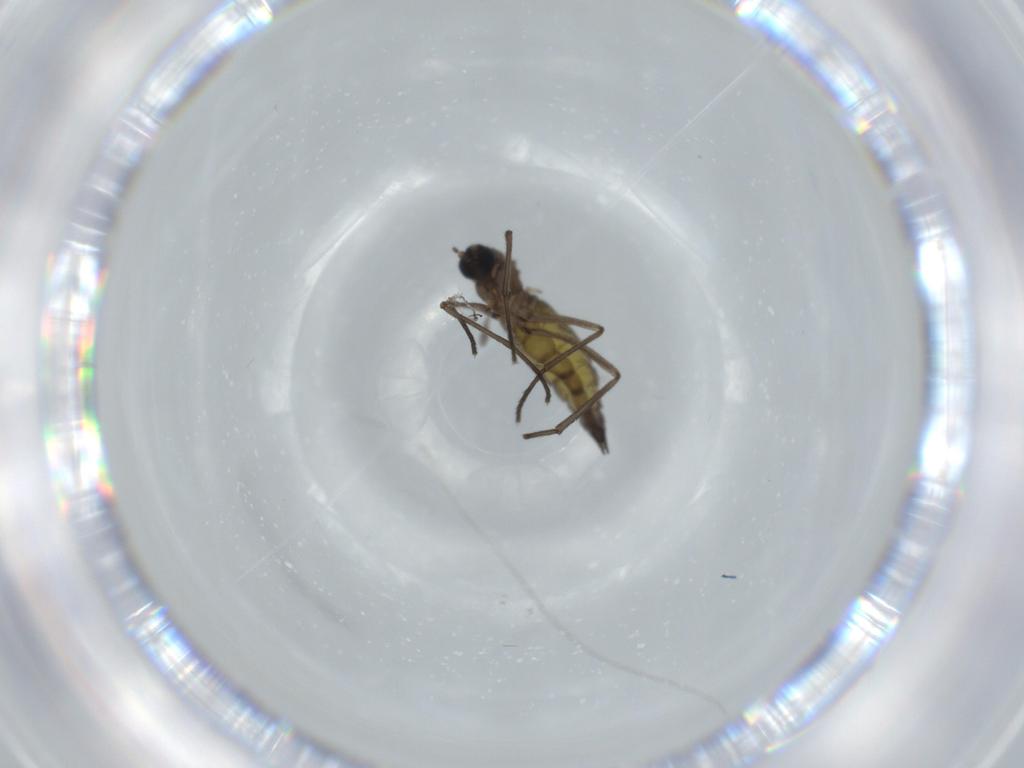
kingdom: Animalia
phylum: Arthropoda
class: Insecta
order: Diptera
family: Sciaridae
